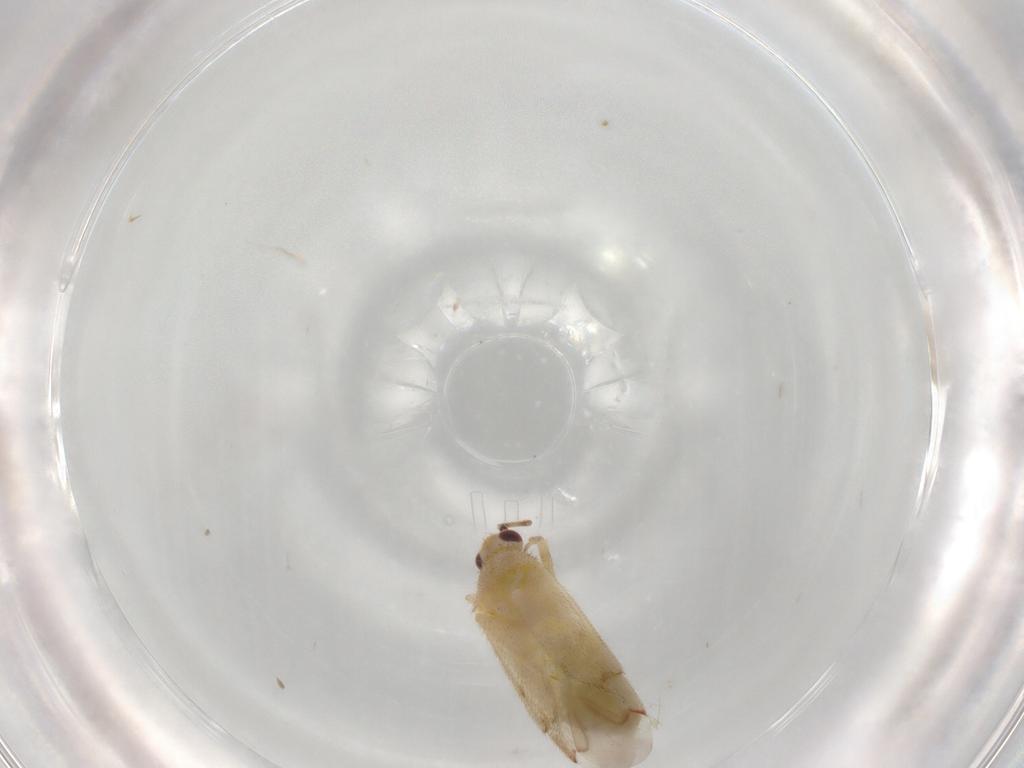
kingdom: Animalia
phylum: Arthropoda
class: Insecta
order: Hemiptera
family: Miridae
